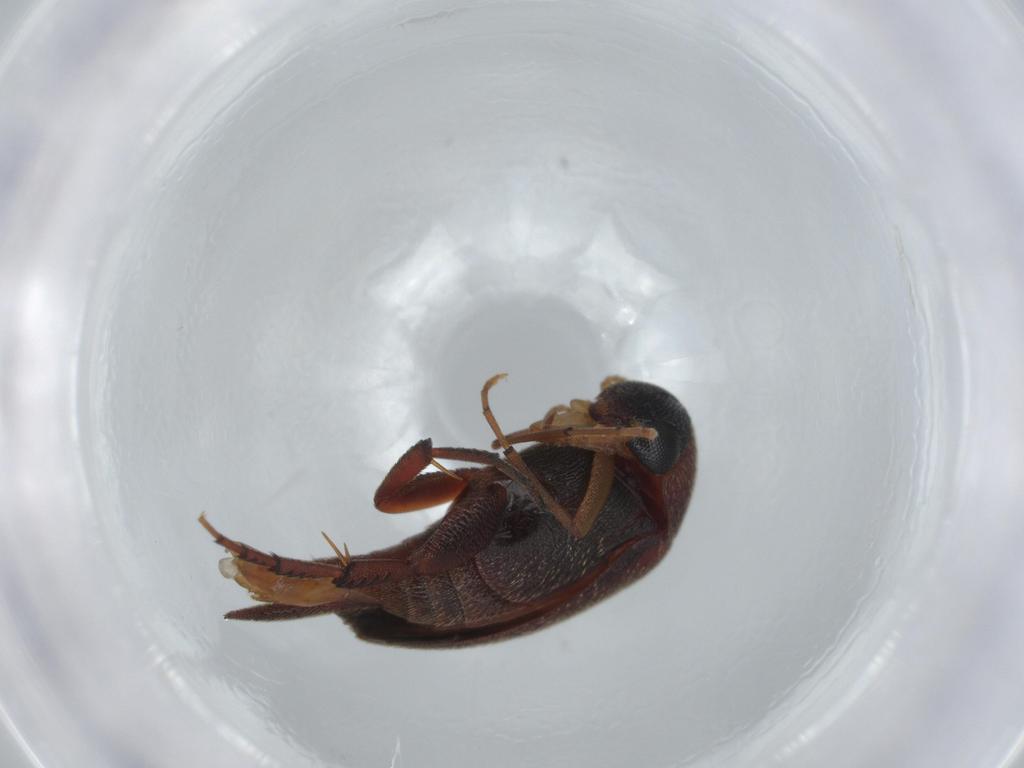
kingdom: Animalia
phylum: Arthropoda
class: Insecta
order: Coleoptera
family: Mordellidae
